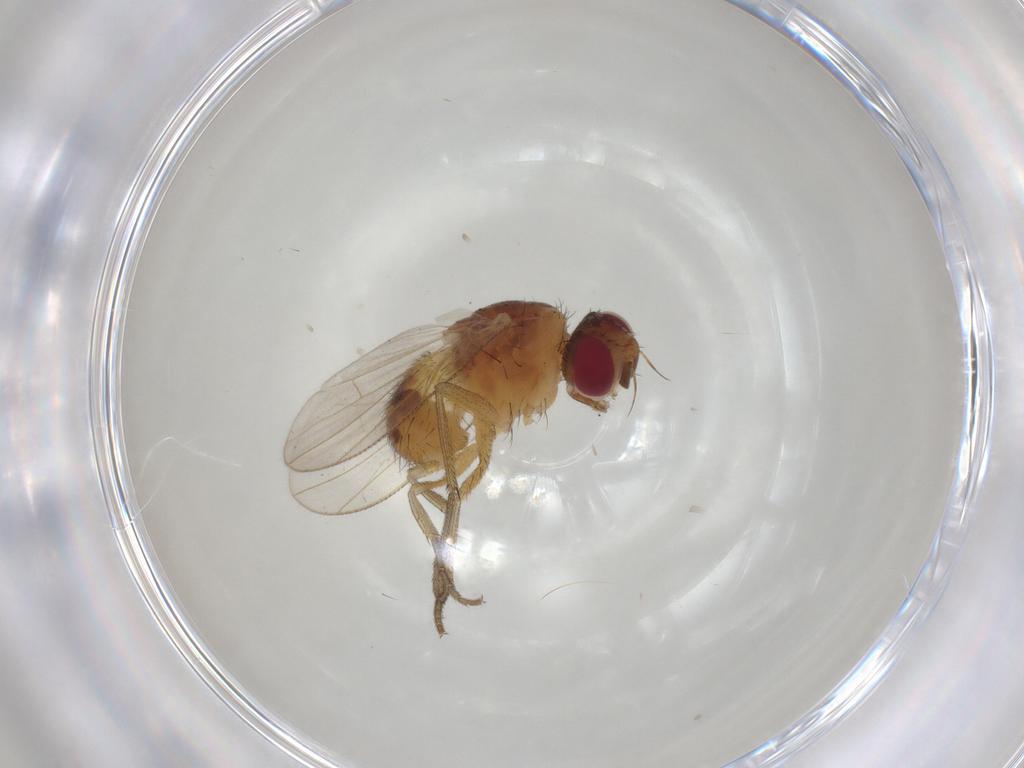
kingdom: Animalia
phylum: Arthropoda
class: Insecta
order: Diptera
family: Muscidae
